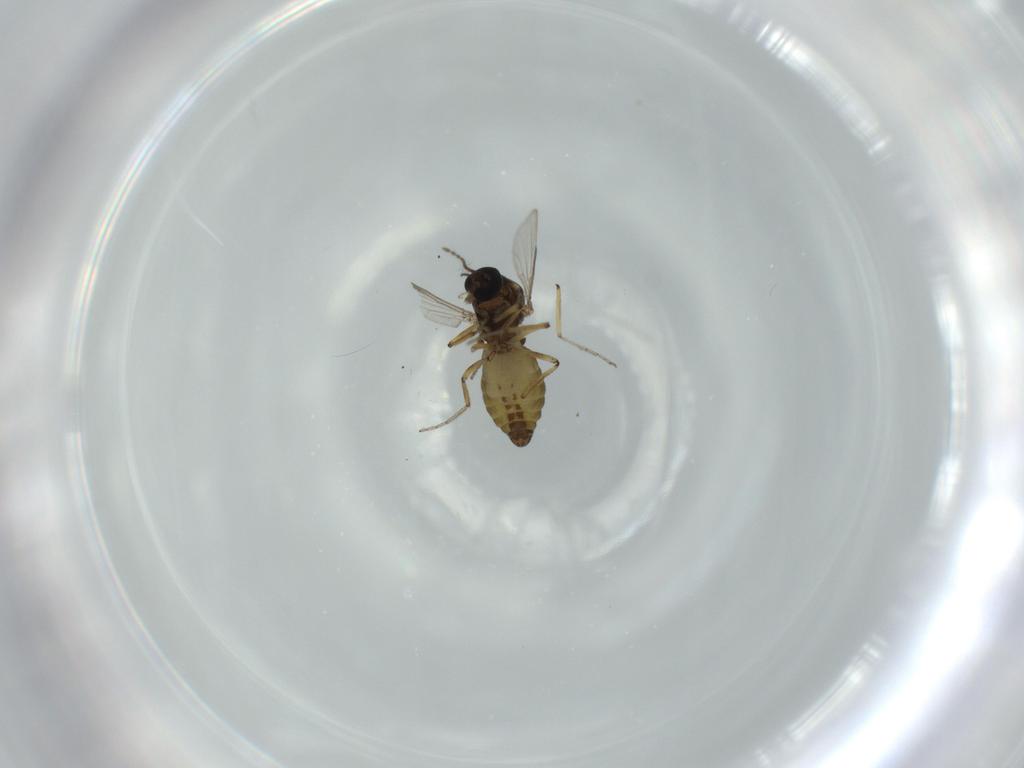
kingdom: Animalia
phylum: Arthropoda
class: Insecta
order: Diptera
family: Ceratopogonidae
